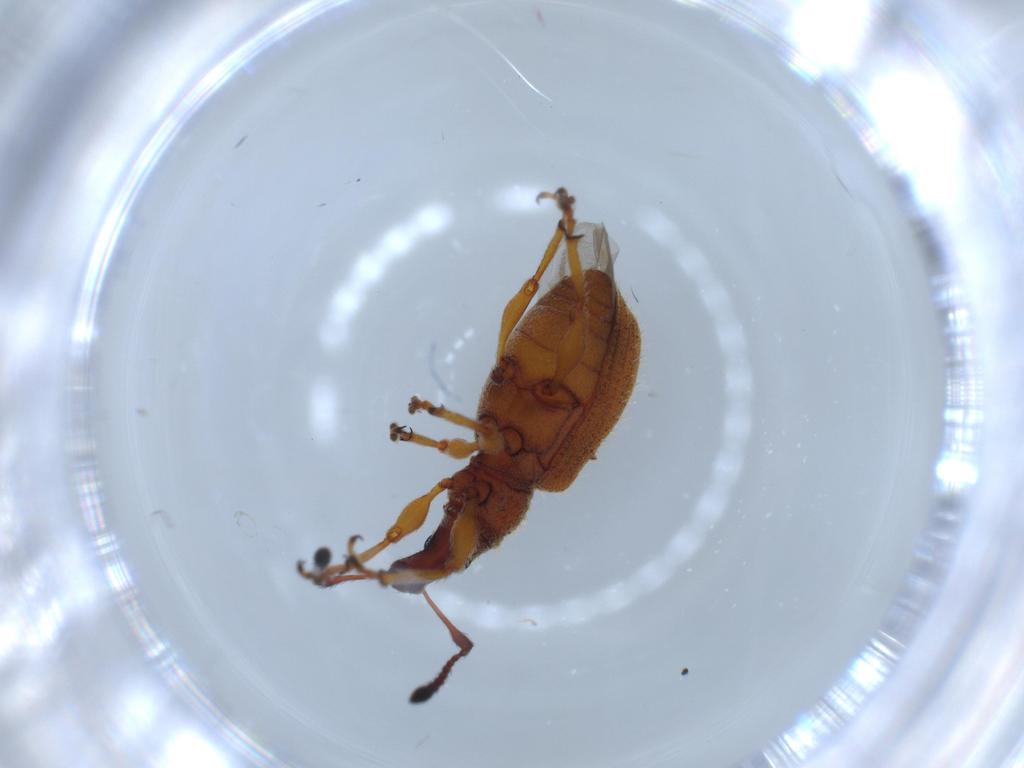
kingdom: Animalia
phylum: Arthropoda
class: Insecta
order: Coleoptera
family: Curculionidae
